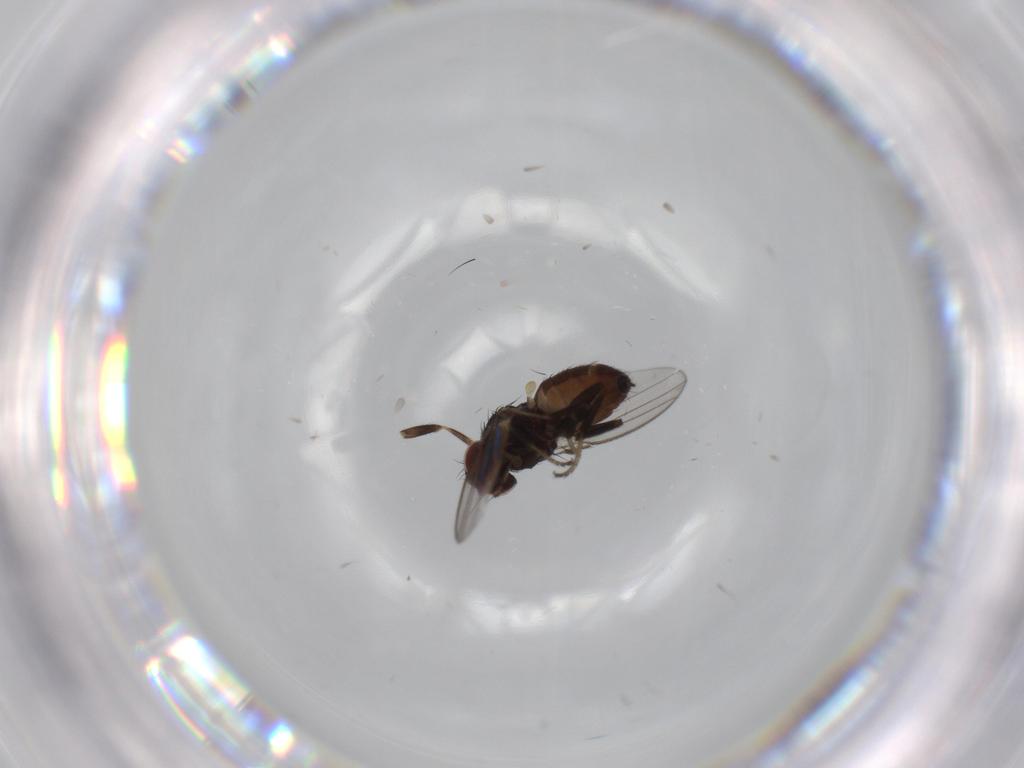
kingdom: Animalia
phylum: Arthropoda
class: Insecta
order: Diptera
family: Milichiidae
